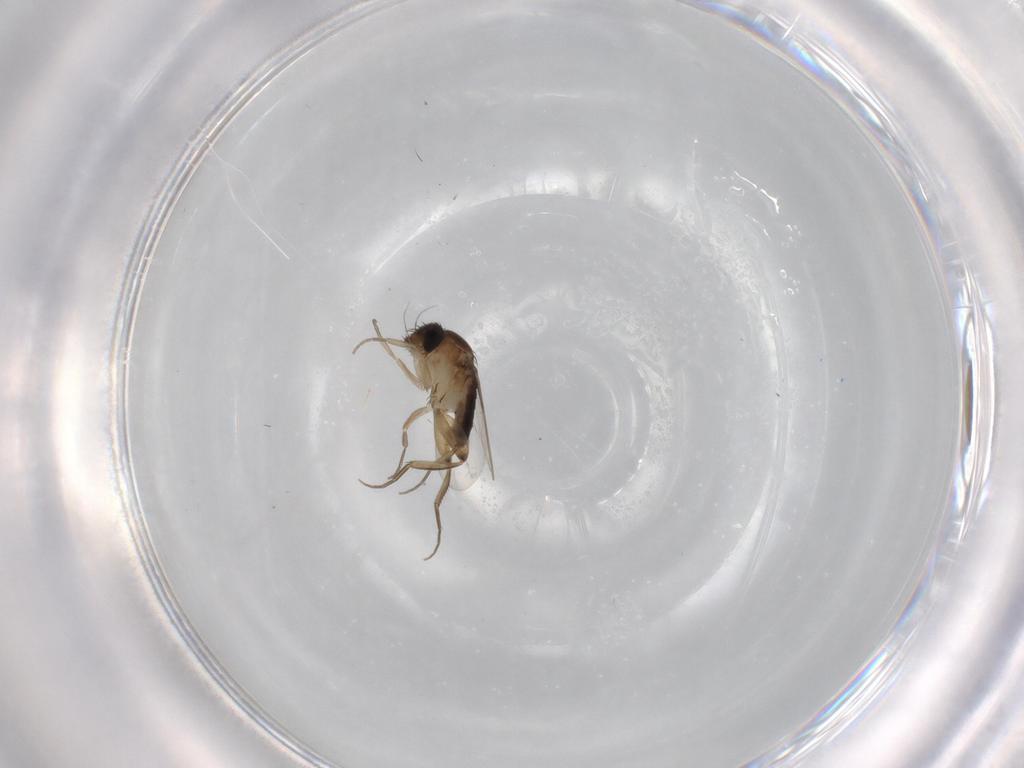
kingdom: Animalia
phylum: Arthropoda
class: Insecta
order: Diptera
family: Phoridae
